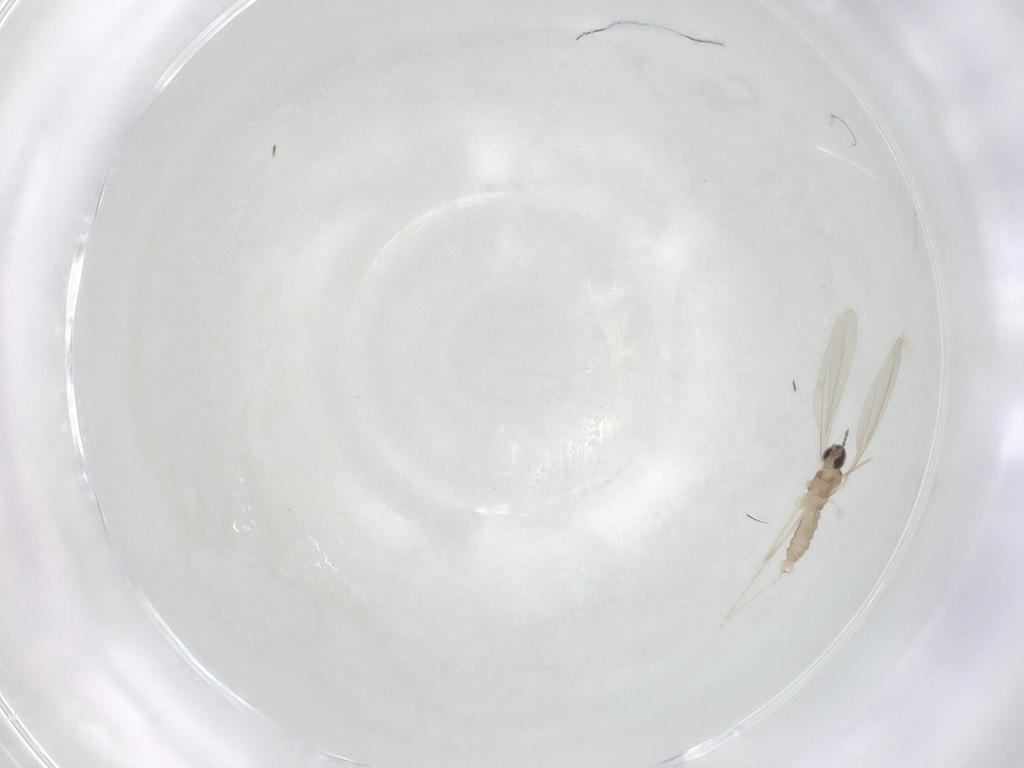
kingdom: Animalia
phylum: Arthropoda
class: Insecta
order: Diptera
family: Cecidomyiidae
